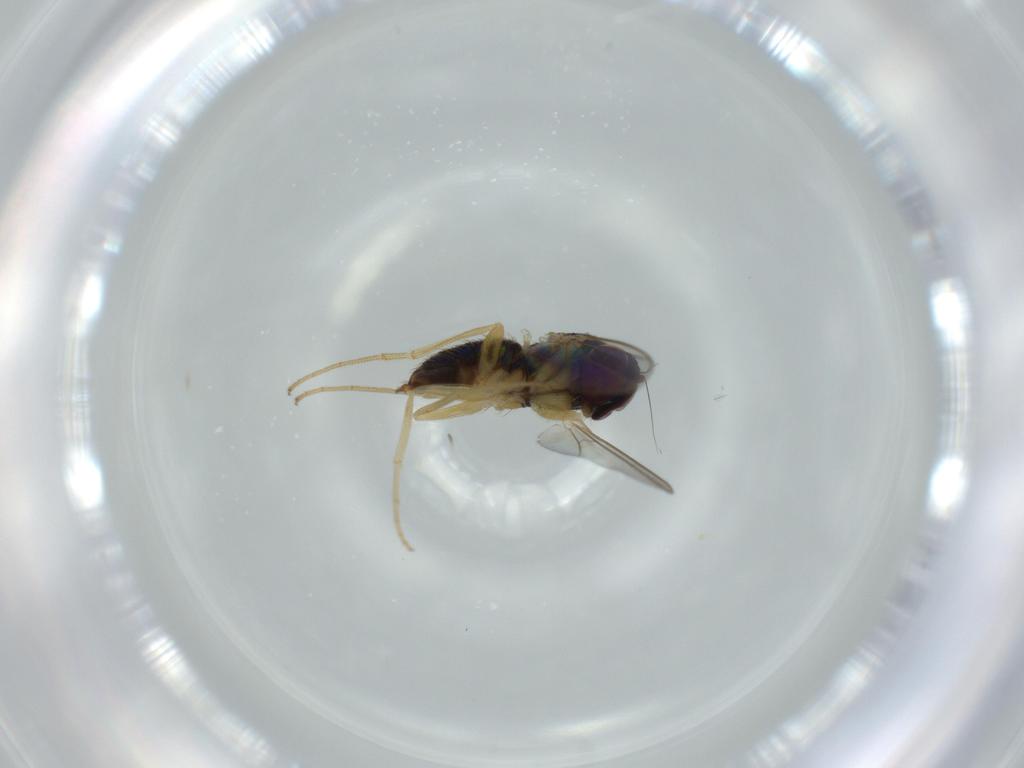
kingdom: Animalia
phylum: Arthropoda
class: Insecta
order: Diptera
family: Dolichopodidae
